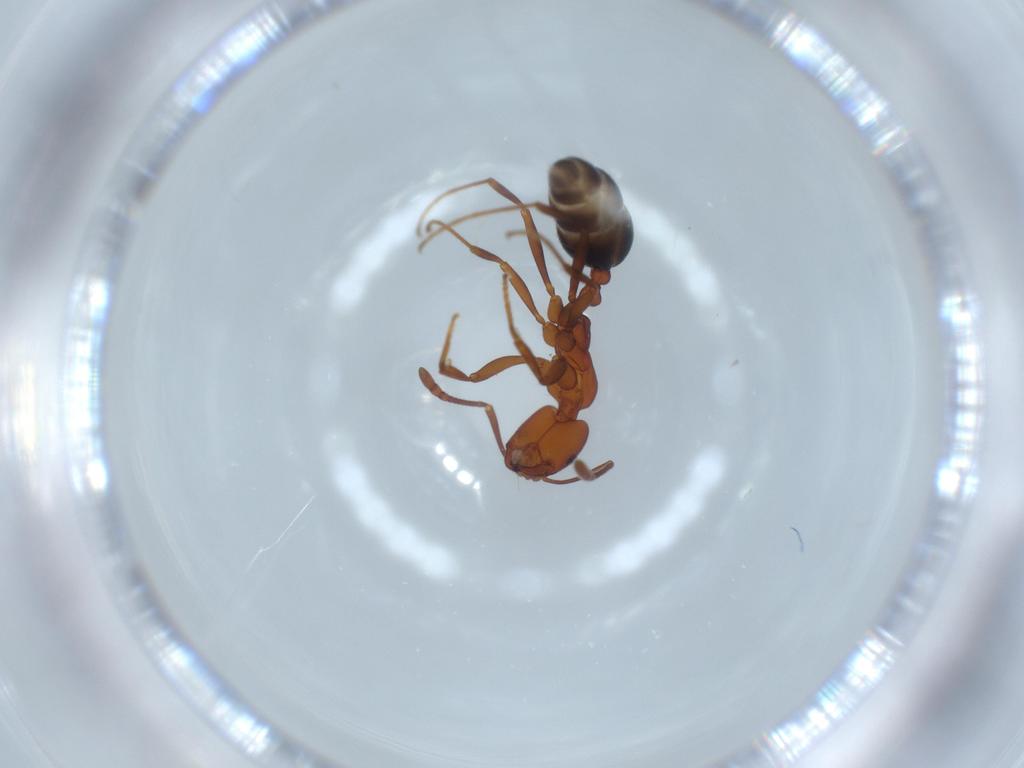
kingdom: Animalia
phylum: Arthropoda
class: Insecta
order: Hymenoptera
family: Formicidae
